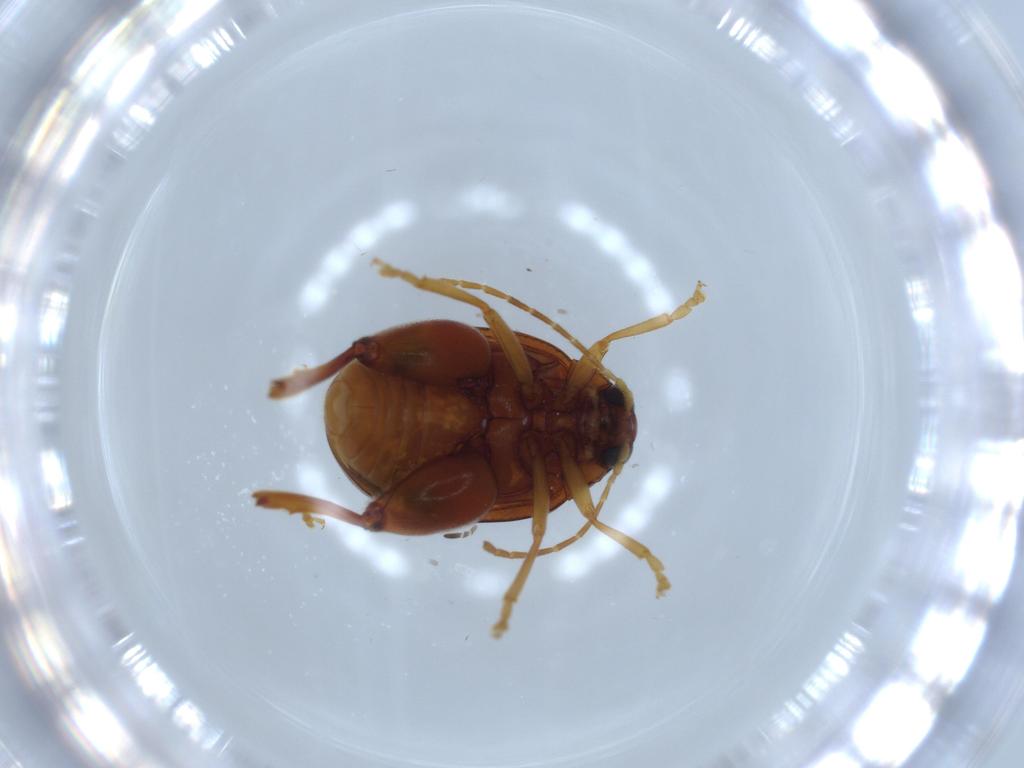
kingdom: Animalia
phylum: Arthropoda
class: Insecta
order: Coleoptera
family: Chrysomelidae
